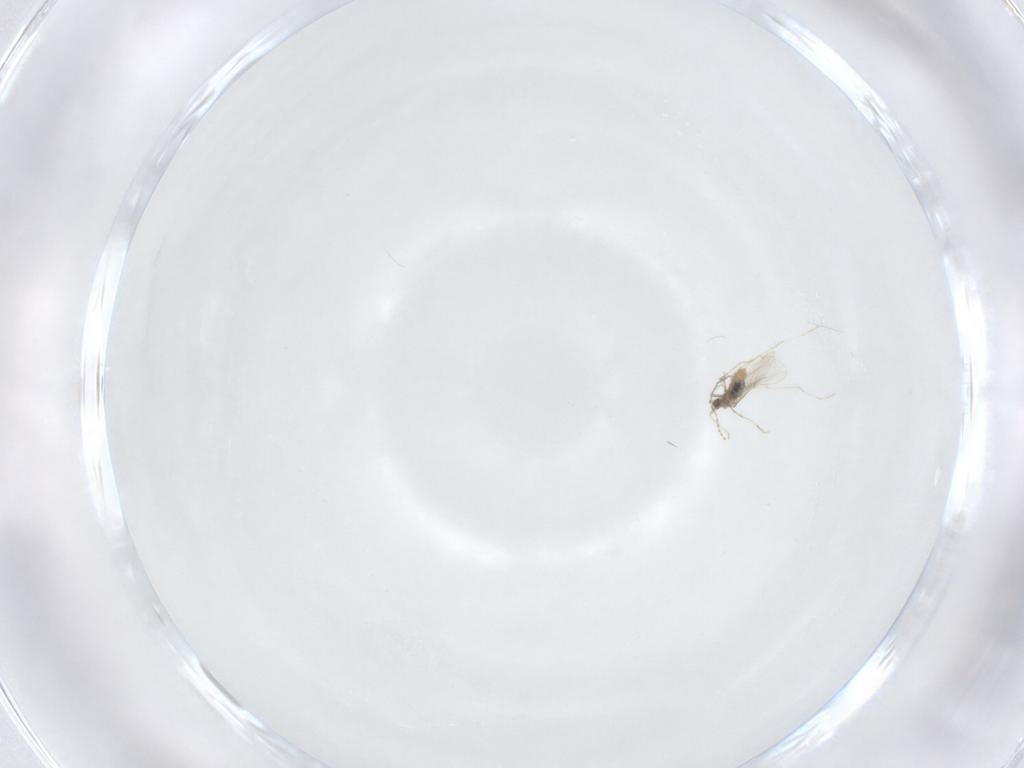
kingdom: Animalia
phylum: Arthropoda
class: Insecta
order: Diptera
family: Cecidomyiidae
